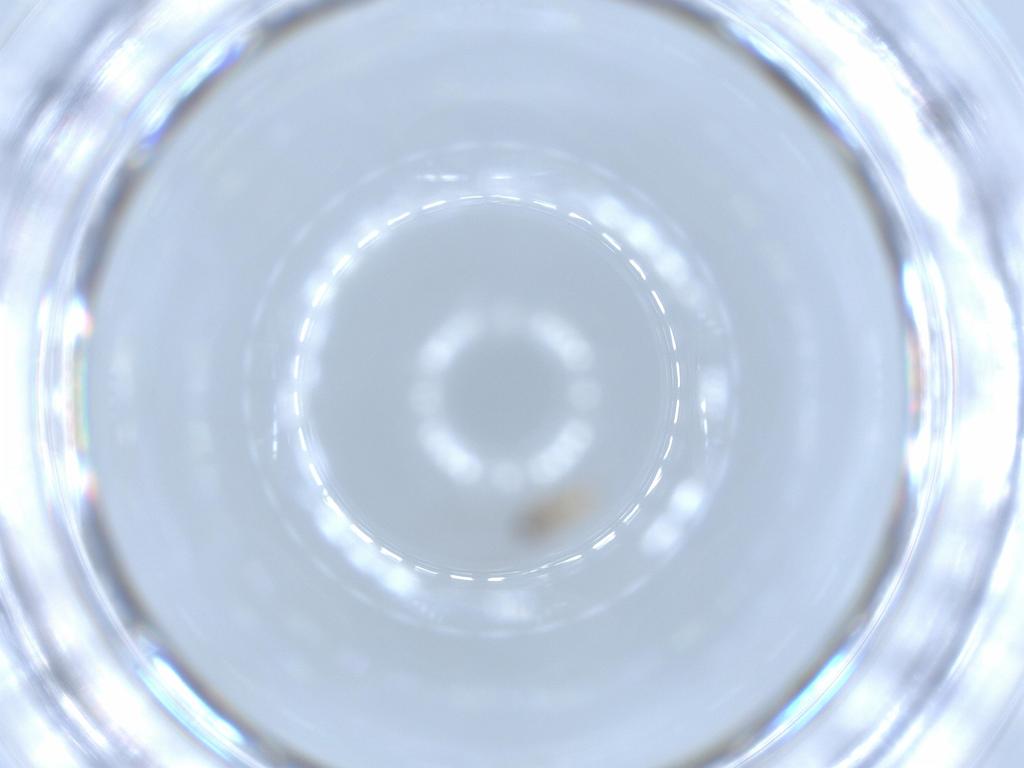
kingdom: Animalia
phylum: Arthropoda
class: Insecta
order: Diptera
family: Cecidomyiidae
